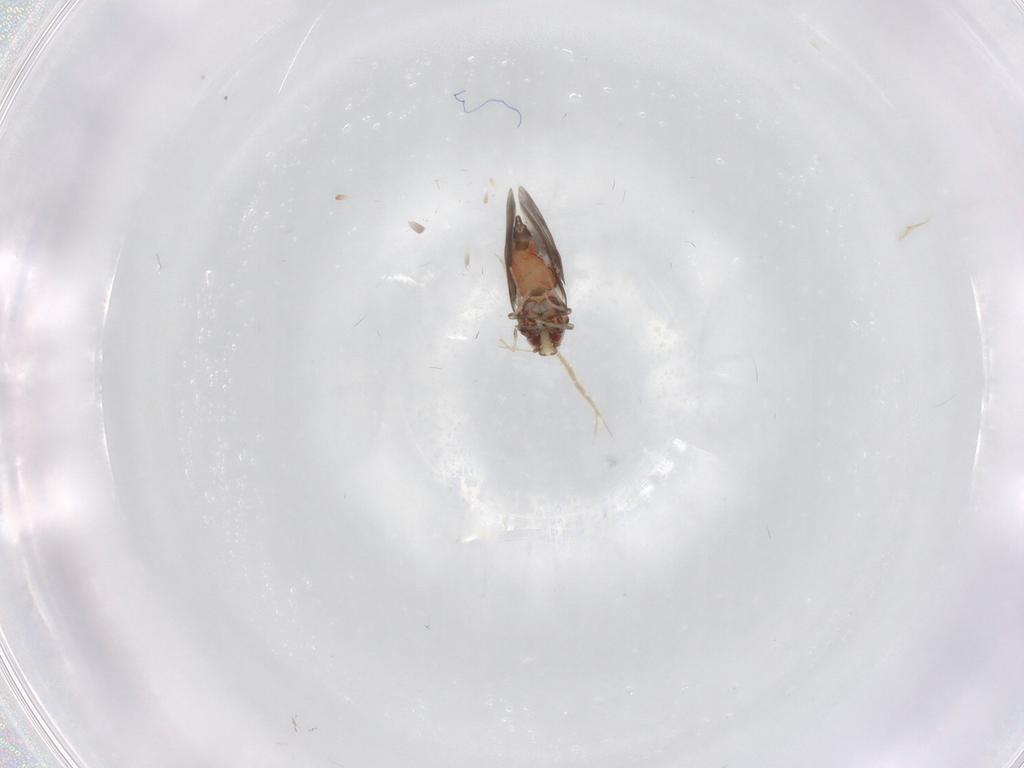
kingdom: Animalia
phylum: Arthropoda
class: Insecta
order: Hemiptera
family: Aleyrodidae
